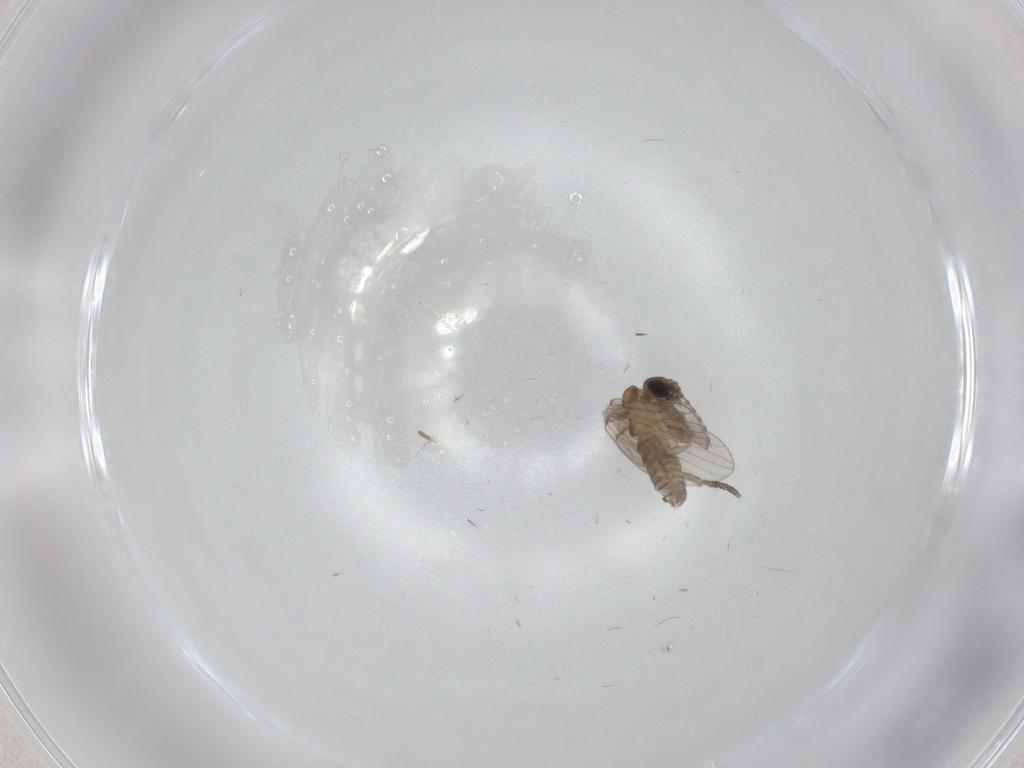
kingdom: Animalia
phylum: Arthropoda
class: Insecta
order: Diptera
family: Psychodidae
